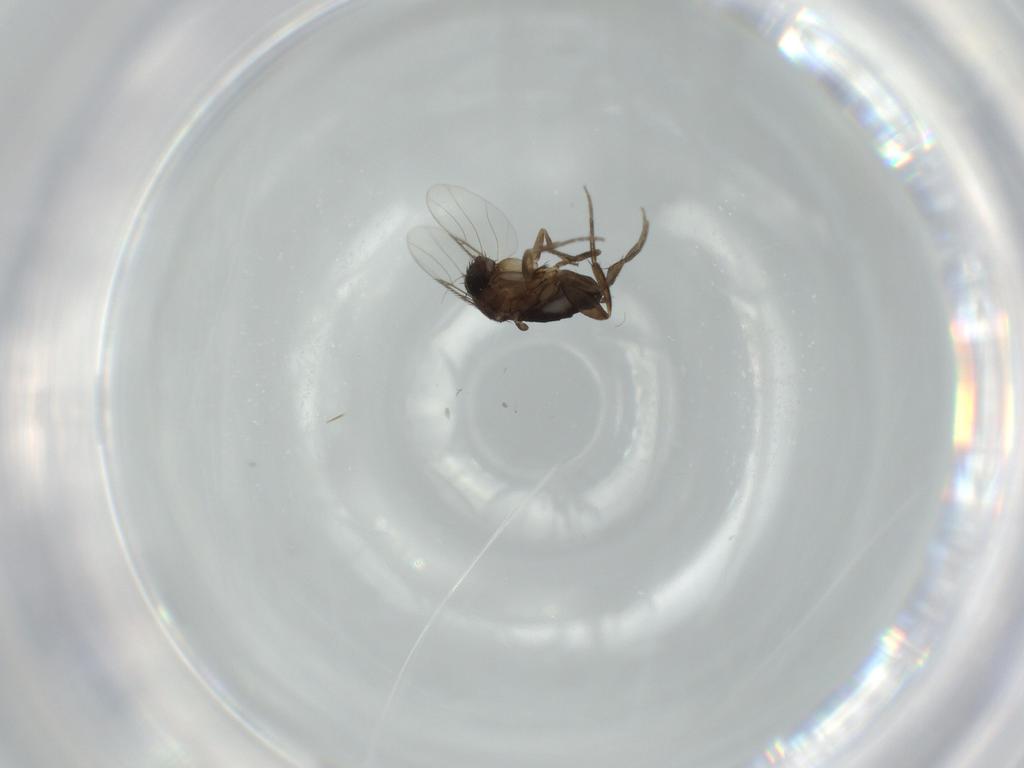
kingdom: Animalia
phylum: Arthropoda
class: Insecta
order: Diptera
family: Phoridae
